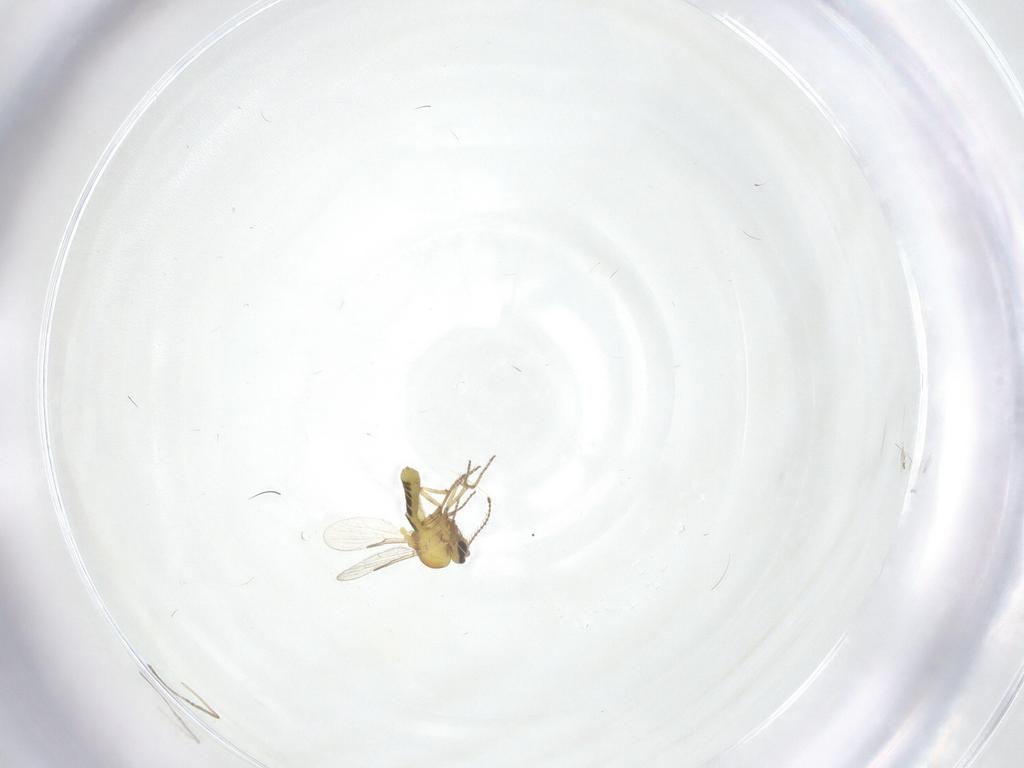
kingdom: Animalia
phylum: Arthropoda
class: Insecta
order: Diptera
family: Ceratopogonidae
